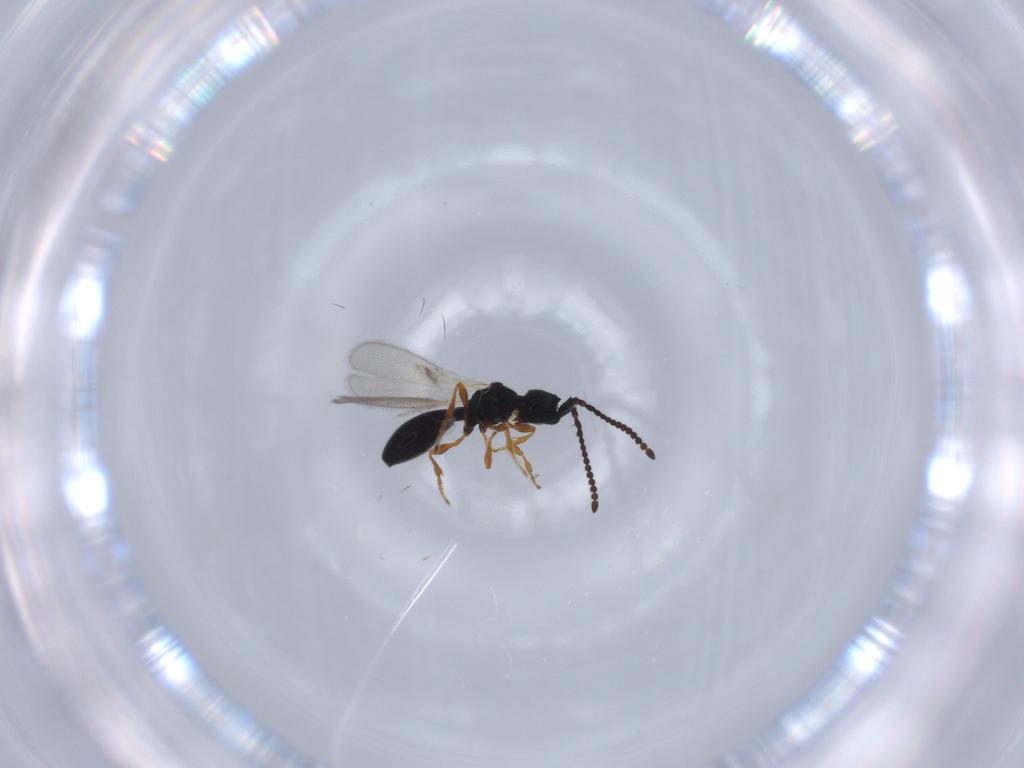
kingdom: Animalia
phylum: Arthropoda
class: Insecta
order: Hymenoptera
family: Diapriidae
